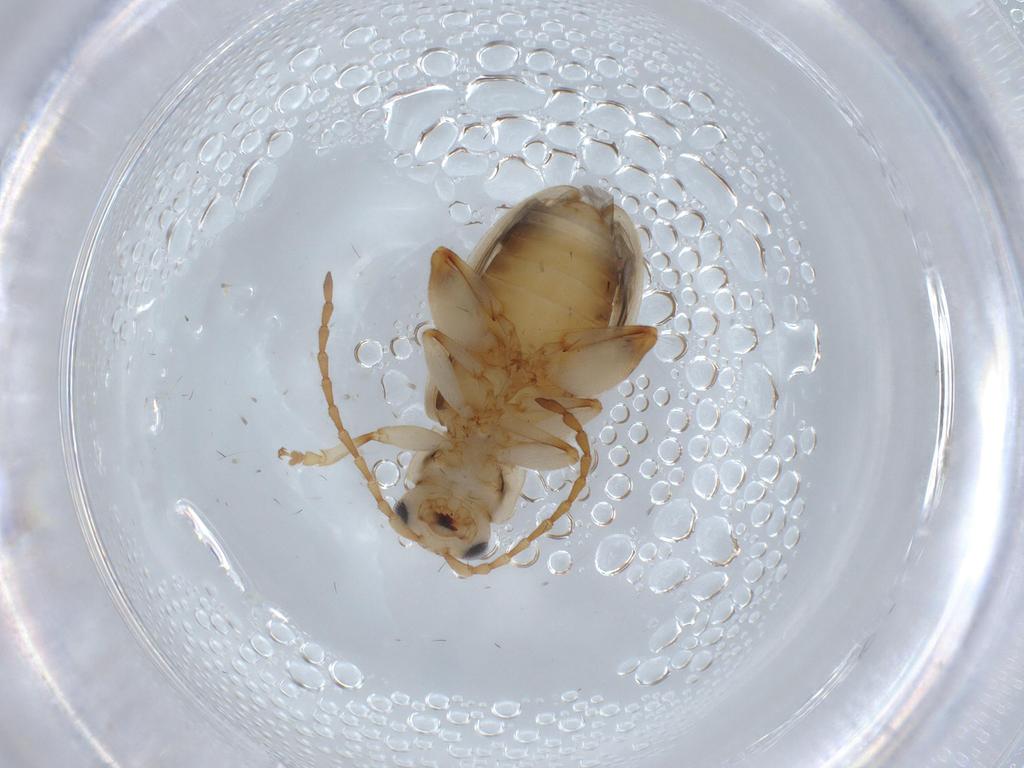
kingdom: Animalia
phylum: Arthropoda
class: Insecta
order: Coleoptera
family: Chrysomelidae
